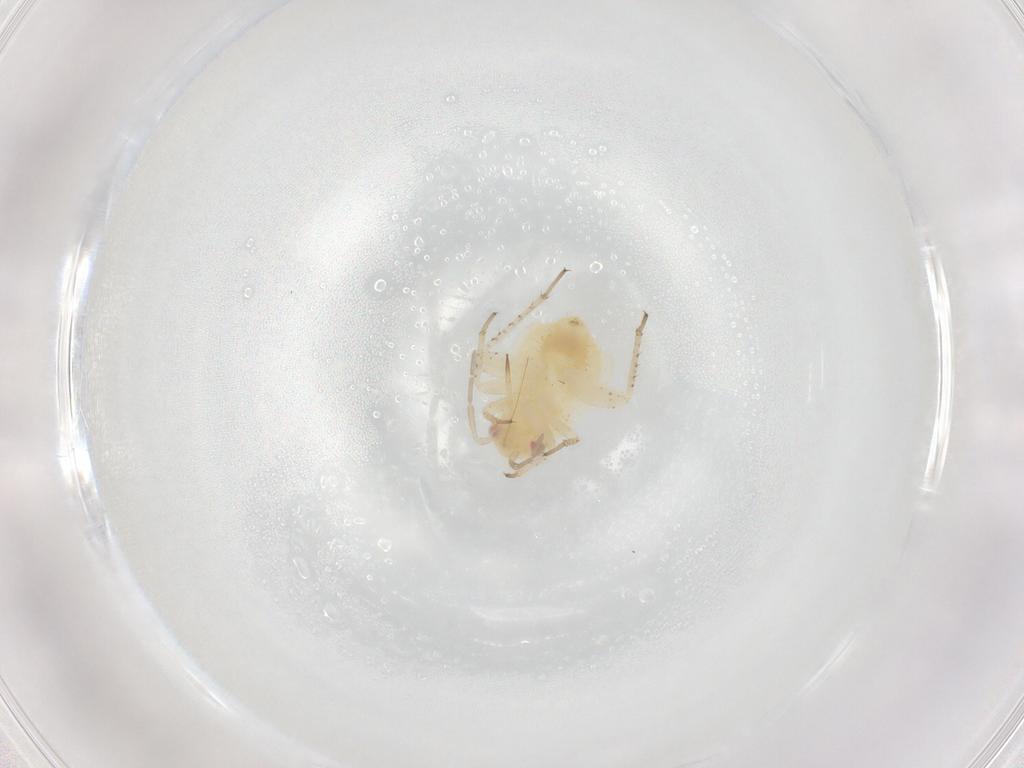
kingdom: Animalia
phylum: Arthropoda
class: Insecta
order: Hemiptera
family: Miridae
